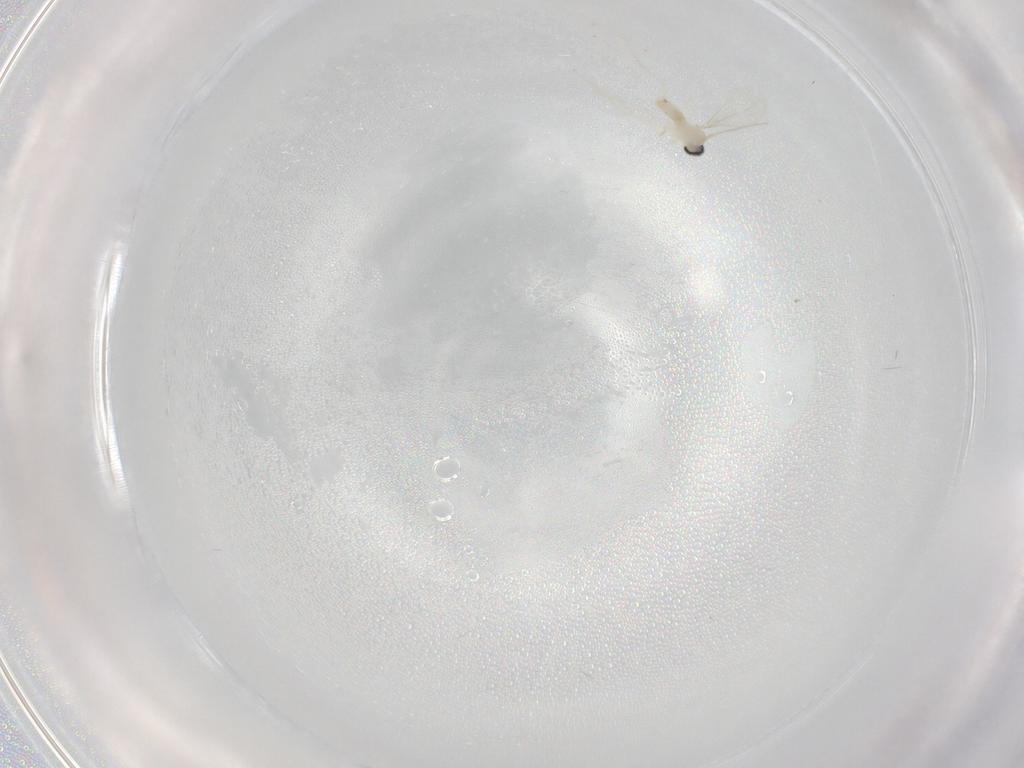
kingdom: Animalia
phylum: Arthropoda
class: Insecta
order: Diptera
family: Cecidomyiidae
